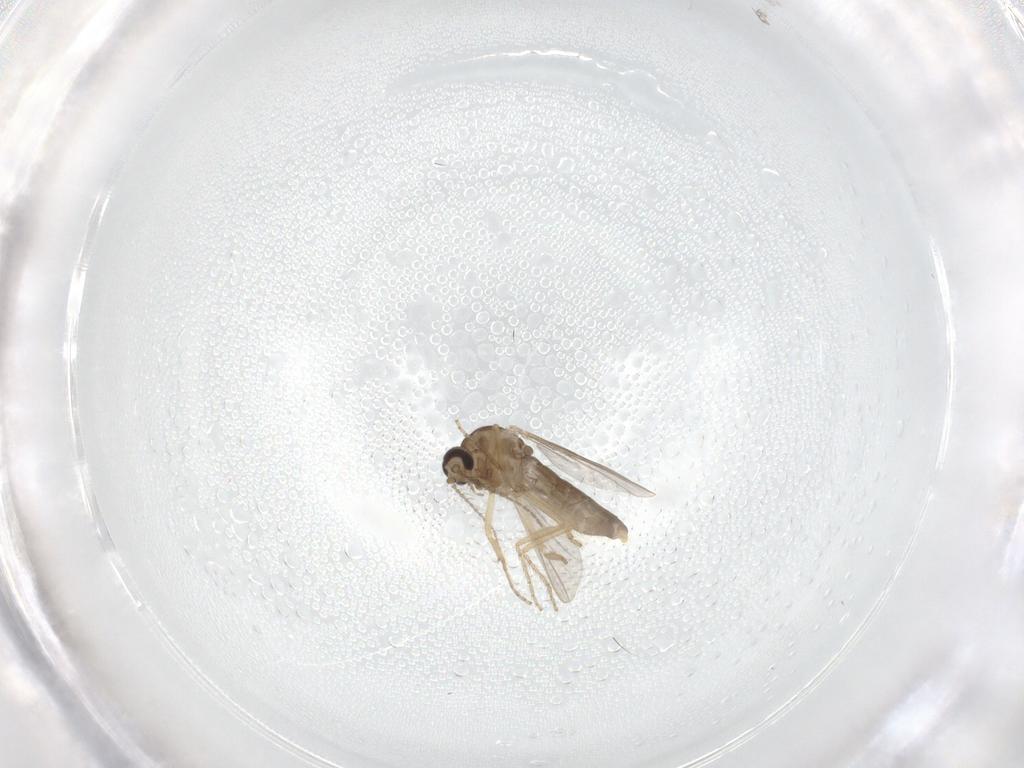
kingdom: Animalia
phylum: Arthropoda
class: Insecta
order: Diptera
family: Ceratopogonidae
